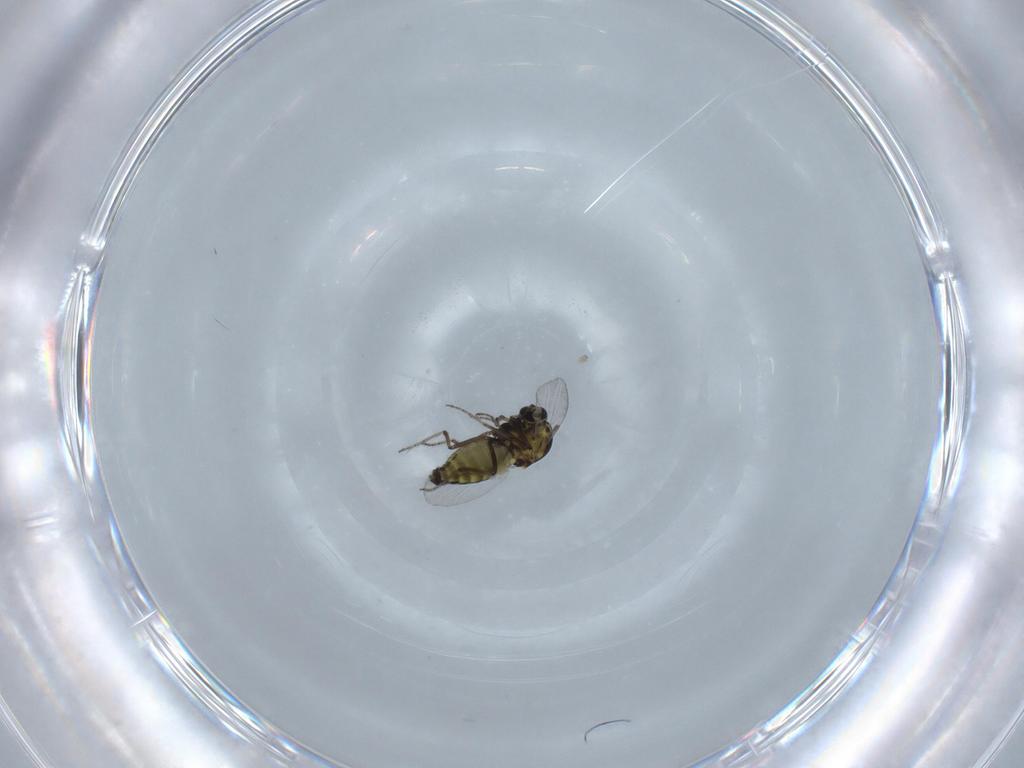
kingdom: Animalia
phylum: Arthropoda
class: Insecta
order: Diptera
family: Ceratopogonidae
